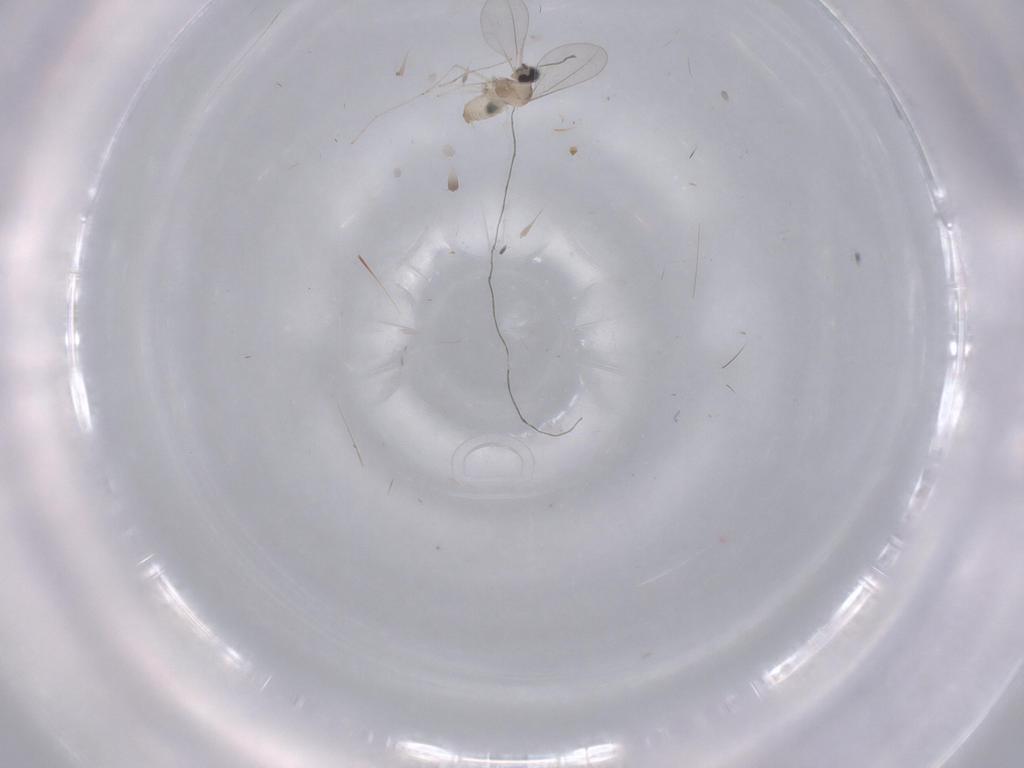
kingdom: Animalia
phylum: Arthropoda
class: Insecta
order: Diptera
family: Cecidomyiidae
